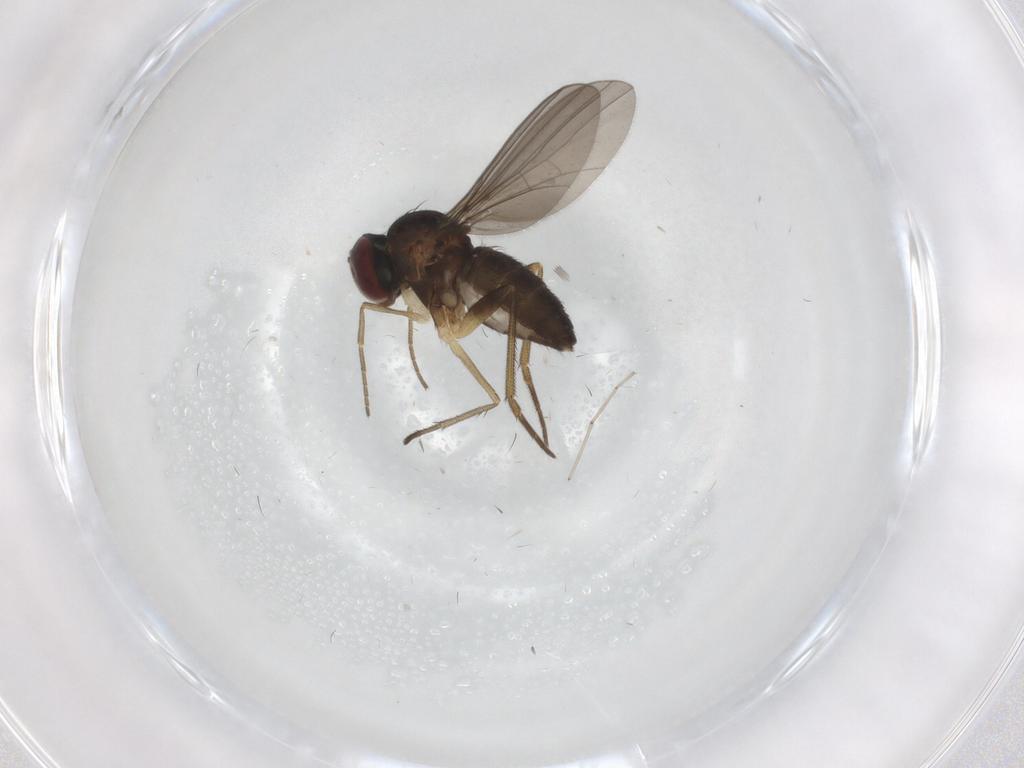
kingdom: Animalia
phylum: Arthropoda
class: Insecta
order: Diptera
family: Dolichopodidae
